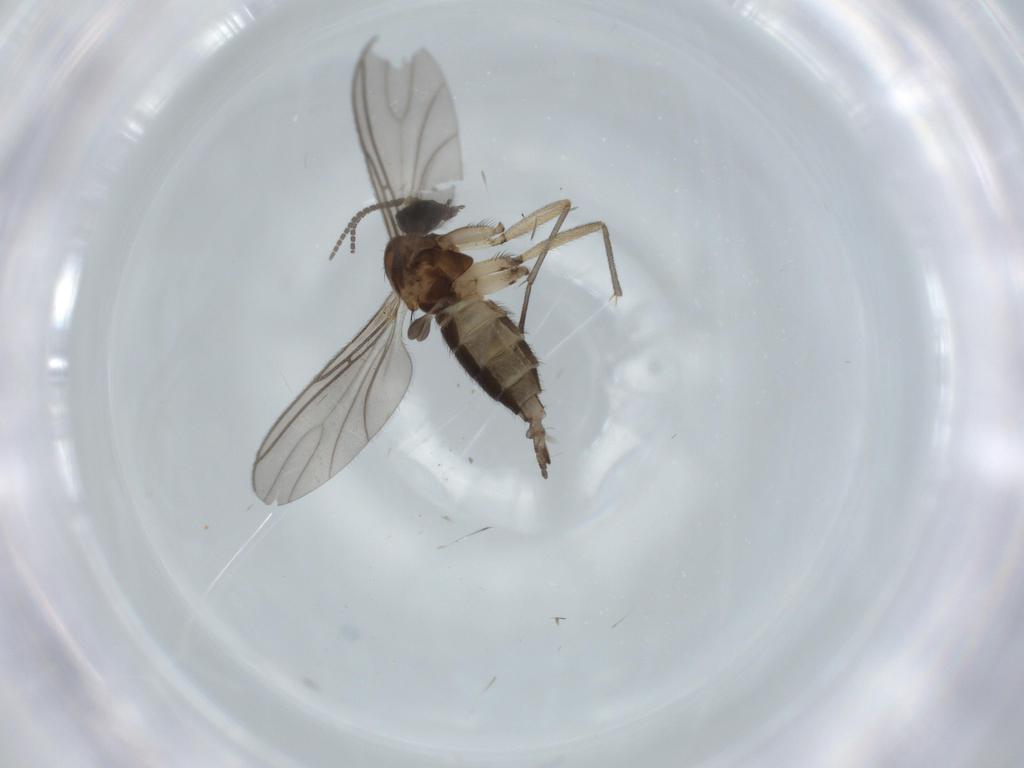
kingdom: Animalia
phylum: Arthropoda
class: Insecta
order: Diptera
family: Sciaridae
